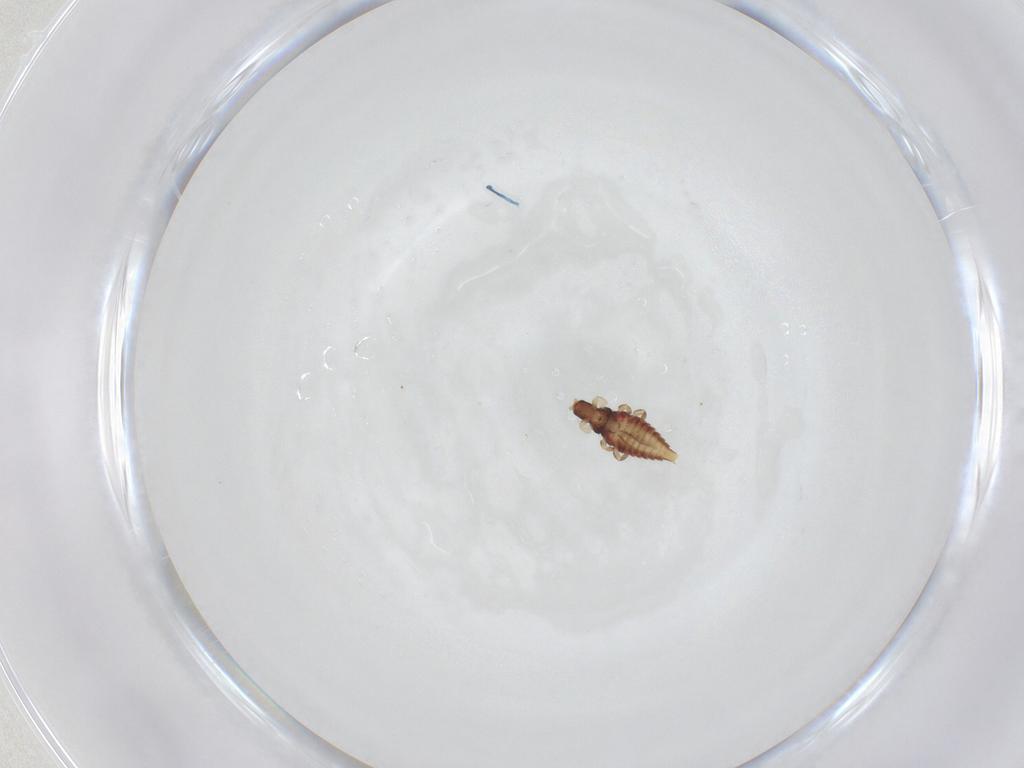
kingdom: Animalia
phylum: Arthropoda
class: Insecta
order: Thysanoptera
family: Phlaeothripidae
